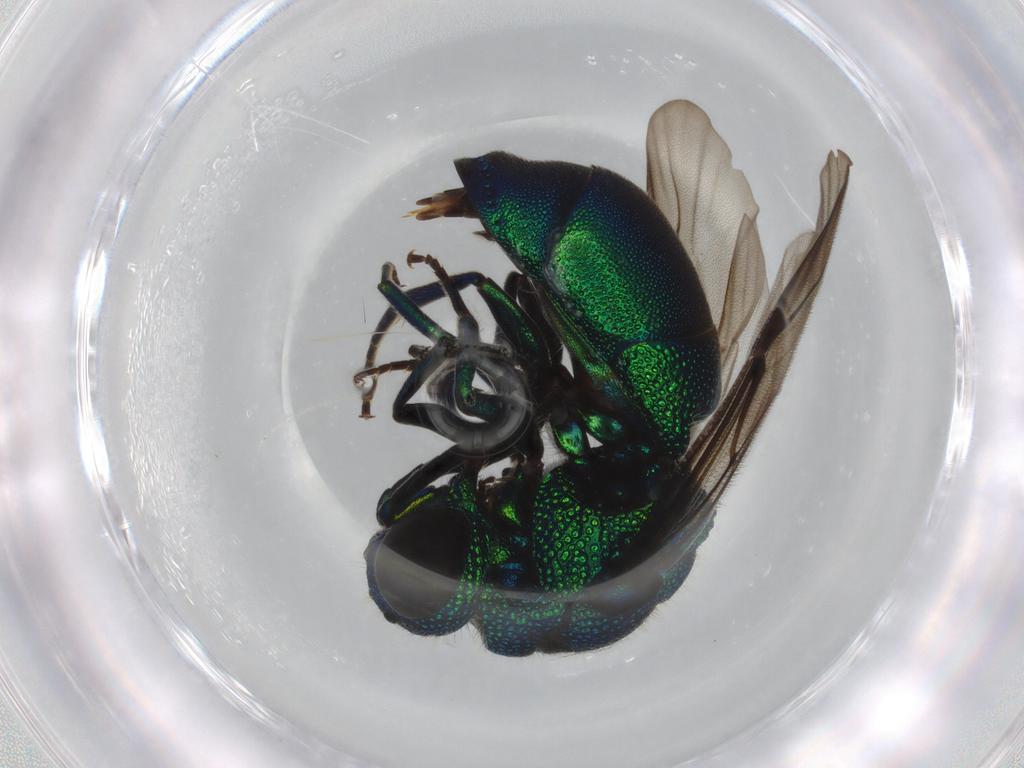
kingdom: Animalia
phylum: Arthropoda
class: Insecta
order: Hymenoptera
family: Chrysididae
